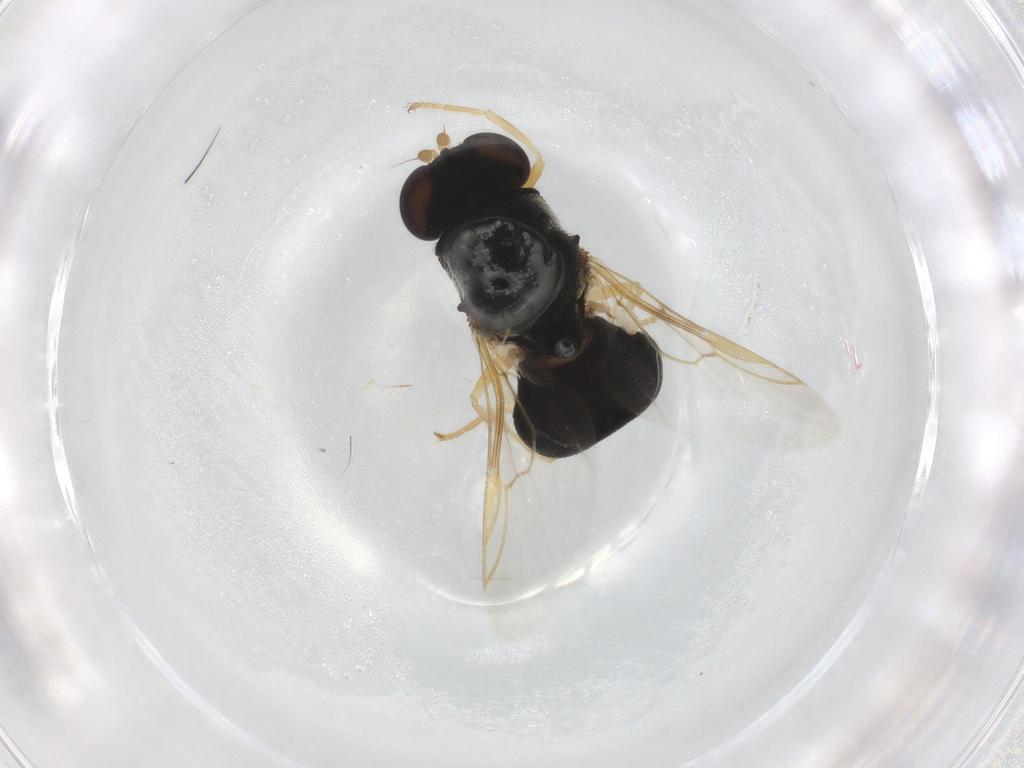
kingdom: Animalia
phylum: Arthropoda
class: Insecta
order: Diptera
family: Stratiomyidae
